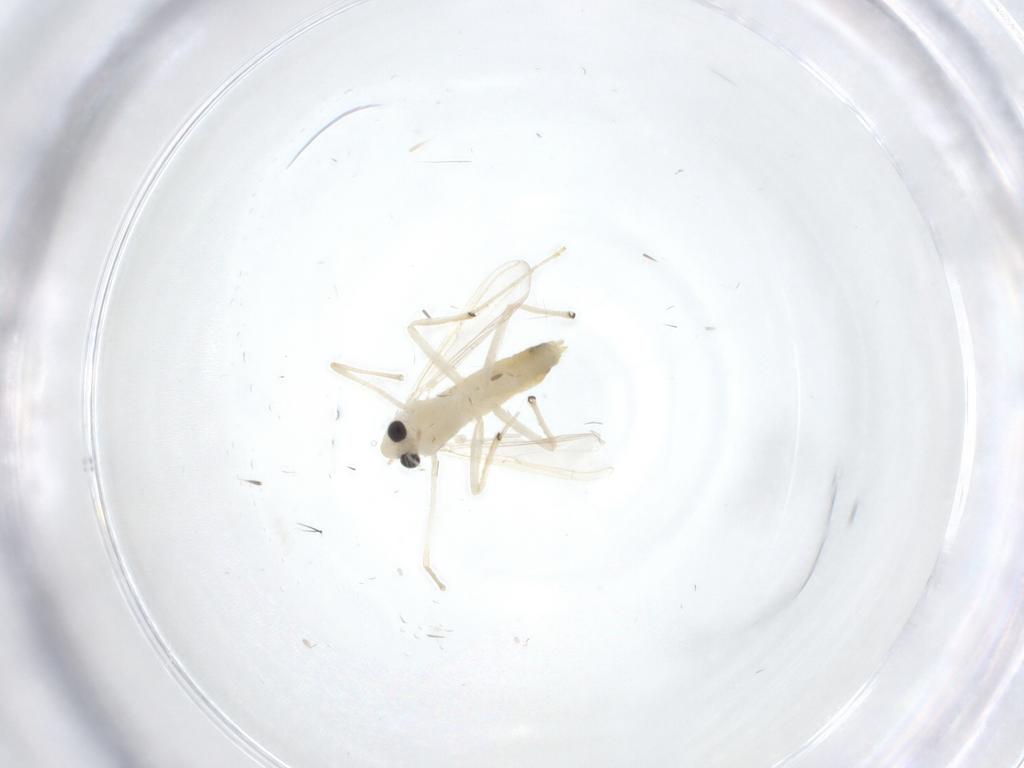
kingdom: Animalia
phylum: Arthropoda
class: Insecta
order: Diptera
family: Chironomidae
